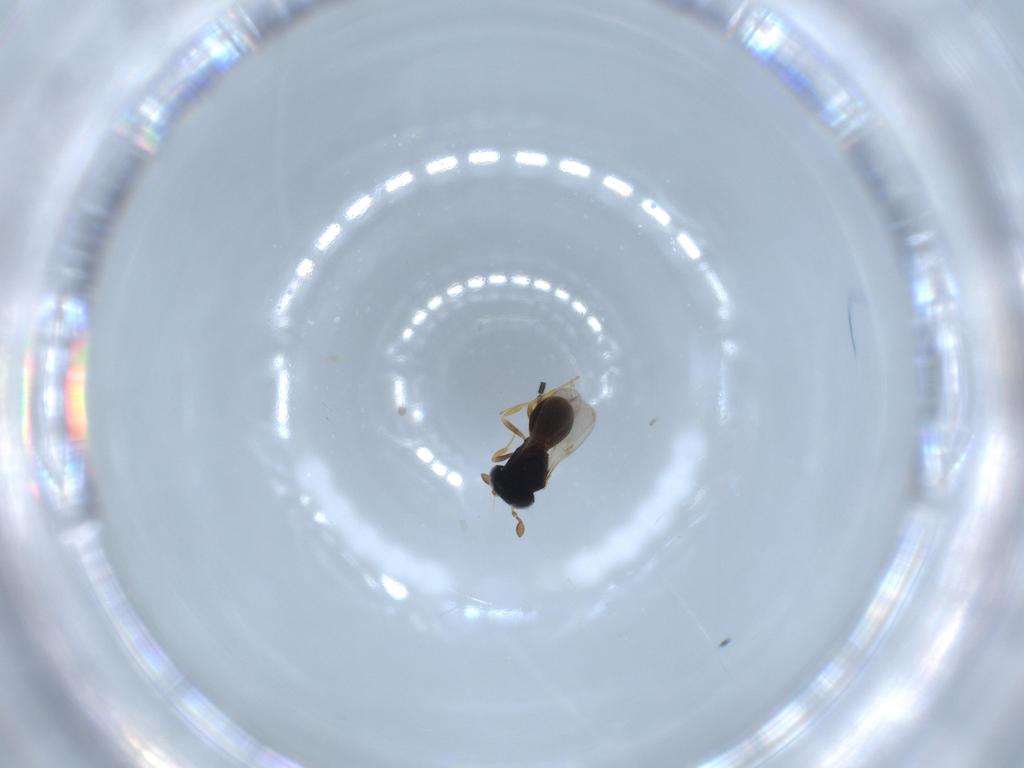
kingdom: Animalia
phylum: Arthropoda
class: Insecta
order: Hymenoptera
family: Scelionidae
